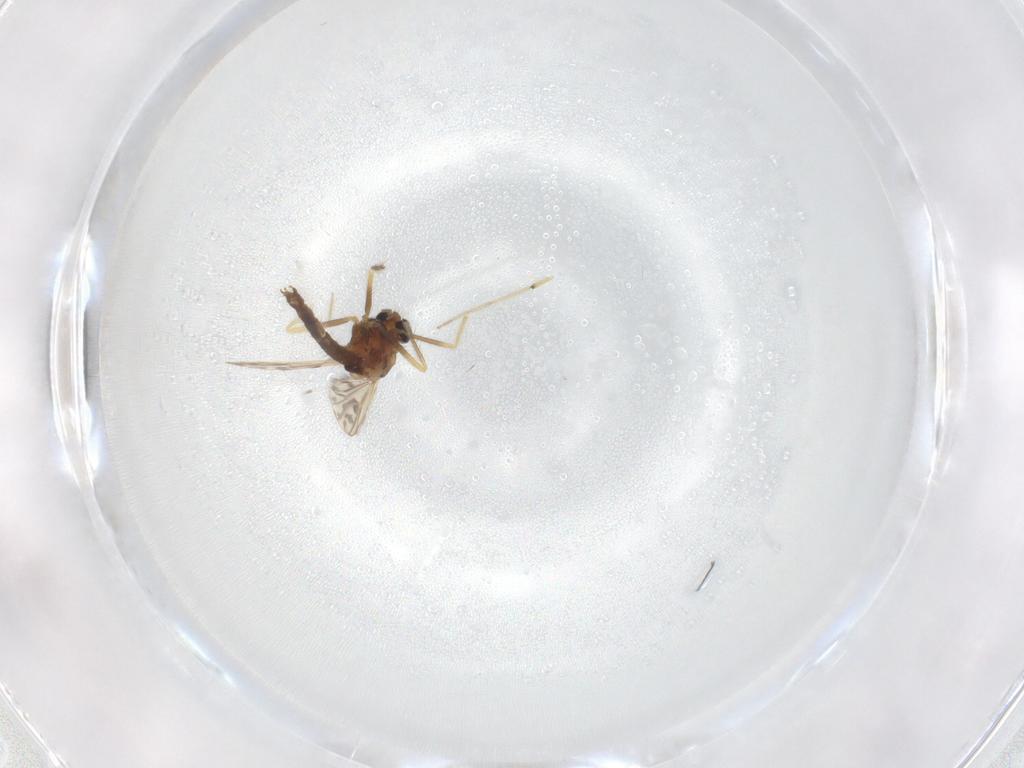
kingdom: Animalia
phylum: Arthropoda
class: Insecta
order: Diptera
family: Chironomidae
